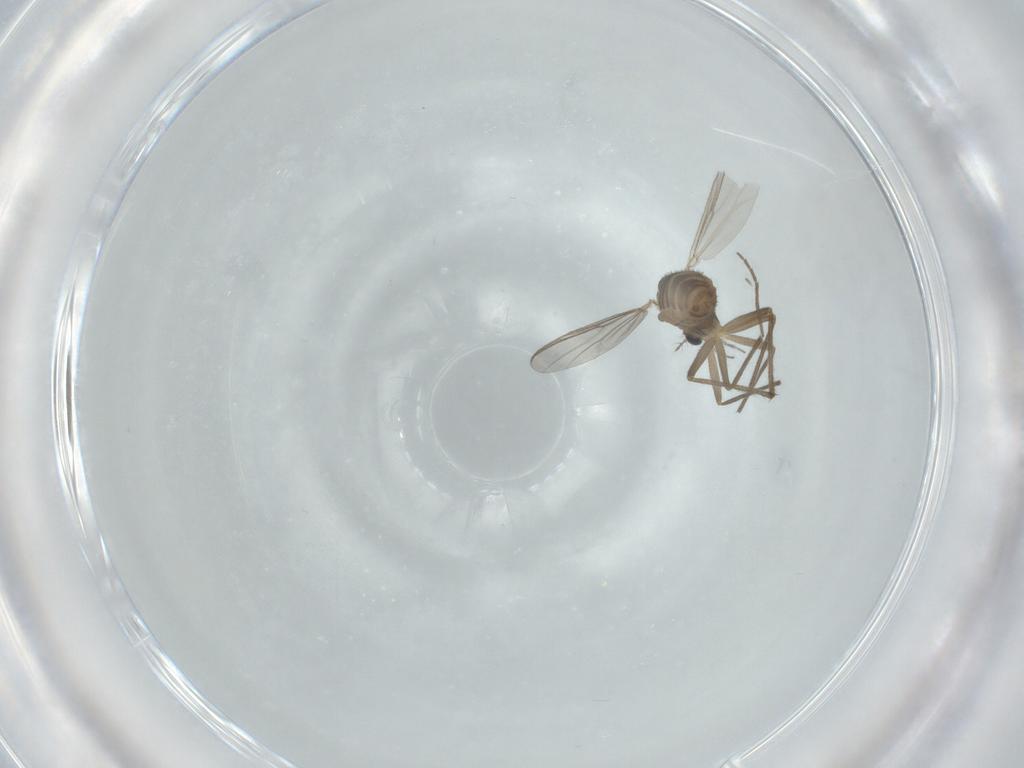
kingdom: Animalia
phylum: Arthropoda
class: Insecta
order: Diptera
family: Chironomidae
